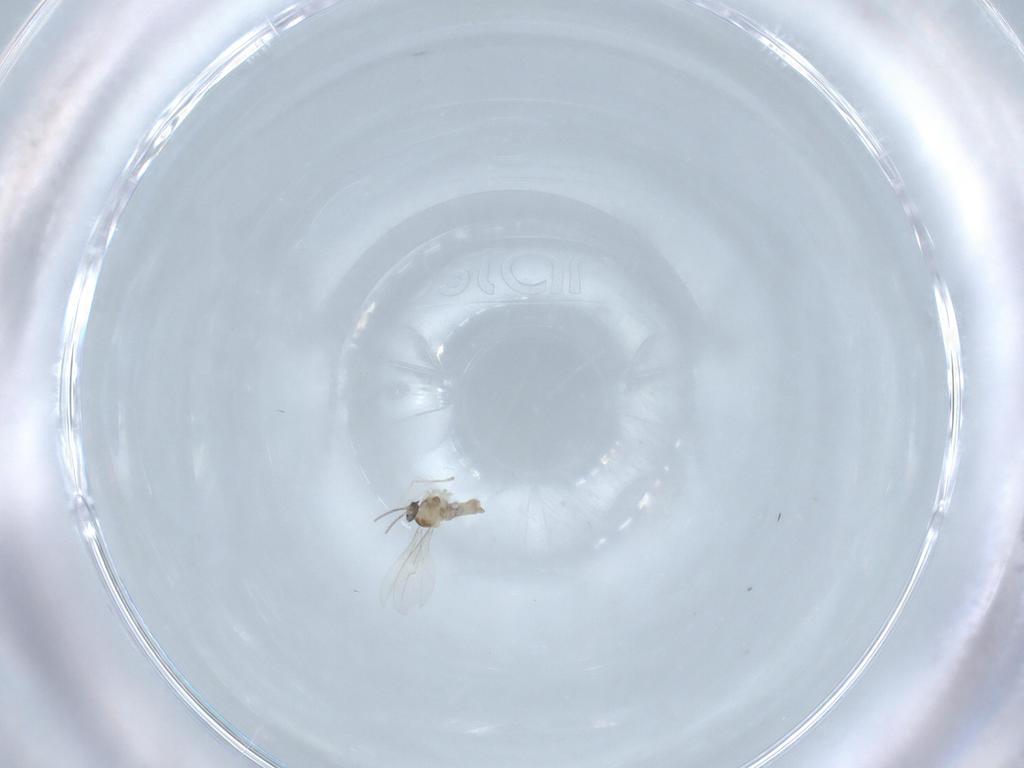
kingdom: Animalia
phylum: Arthropoda
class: Insecta
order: Diptera
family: Cecidomyiidae
